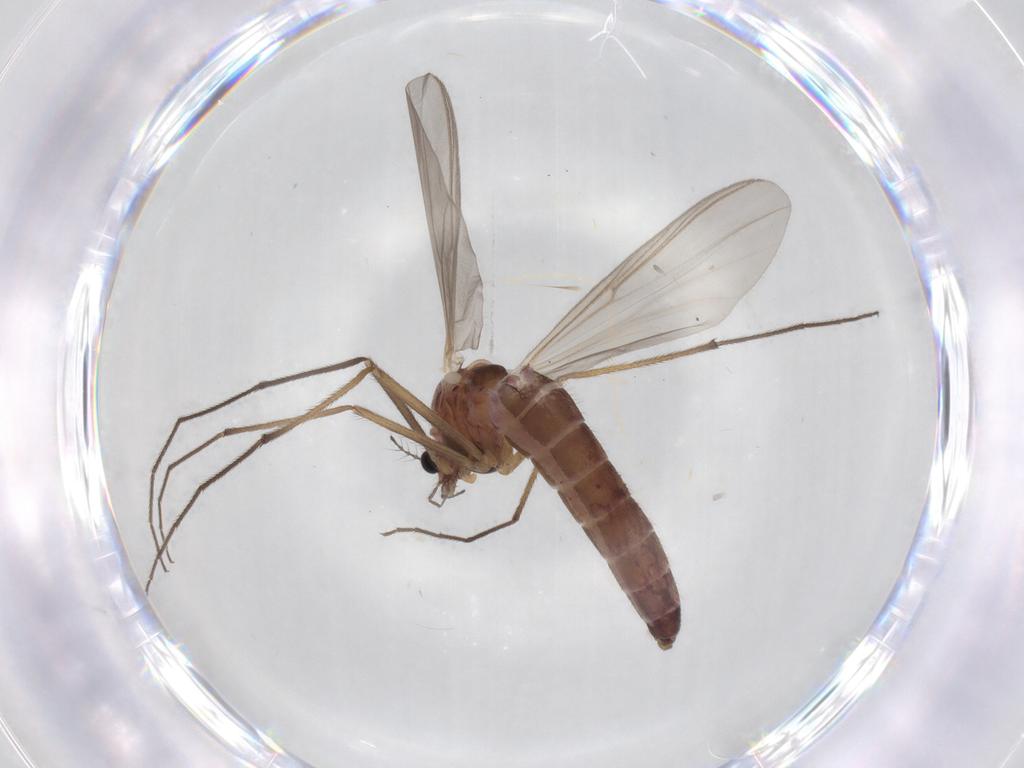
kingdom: Animalia
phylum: Arthropoda
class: Insecta
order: Diptera
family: Chironomidae
